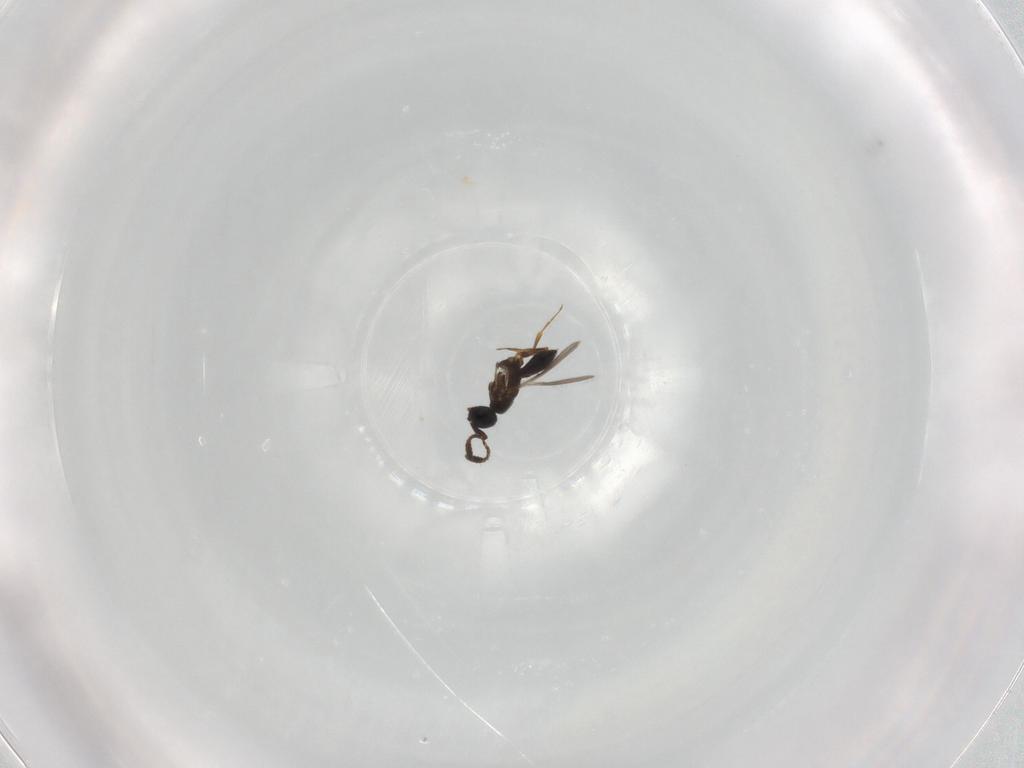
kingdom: Animalia
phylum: Arthropoda
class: Insecta
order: Hymenoptera
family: Scelionidae
